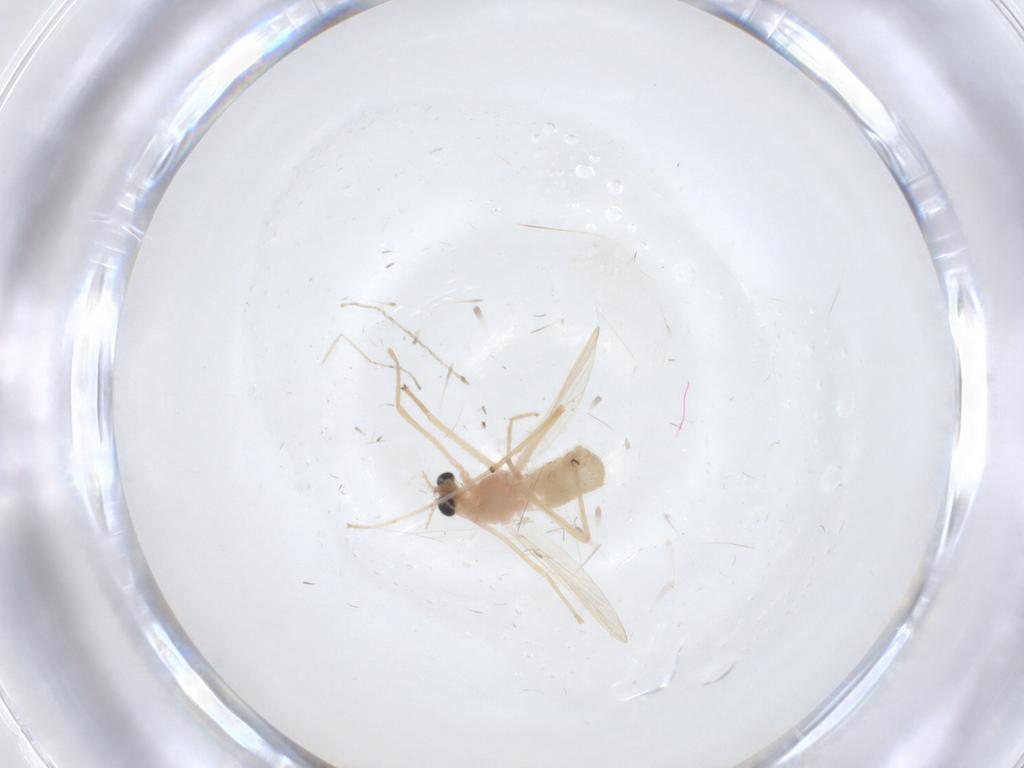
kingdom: Animalia
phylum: Arthropoda
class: Insecta
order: Diptera
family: Chironomidae
